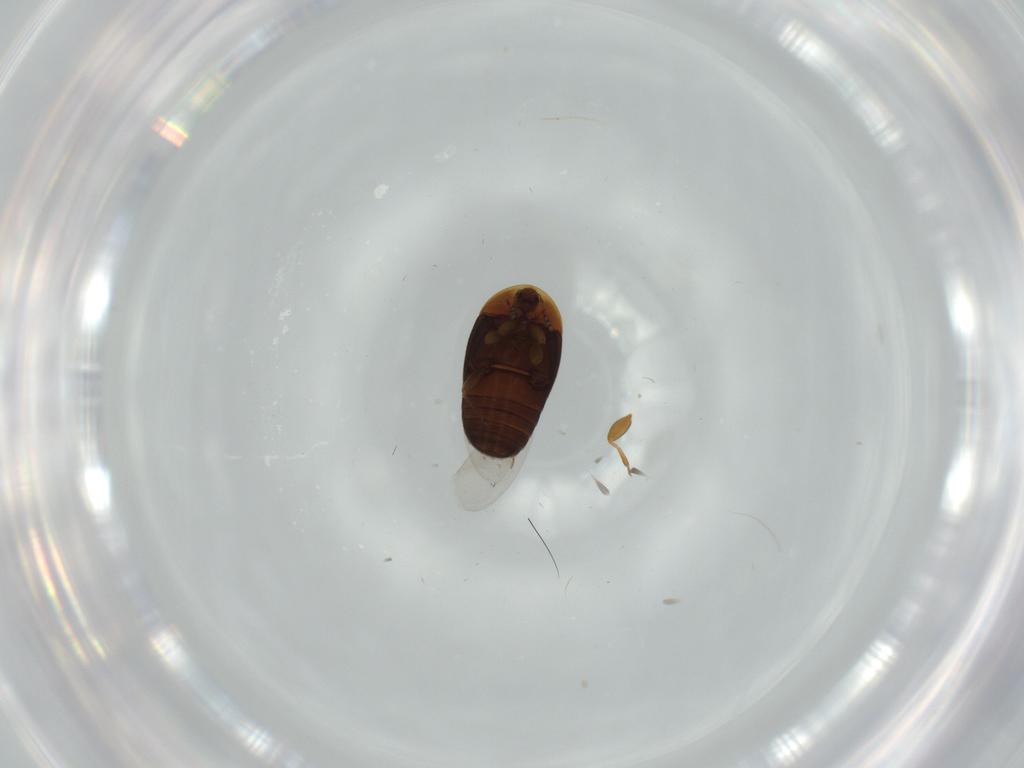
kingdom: Animalia
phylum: Arthropoda
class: Insecta
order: Coleoptera
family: Corylophidae
